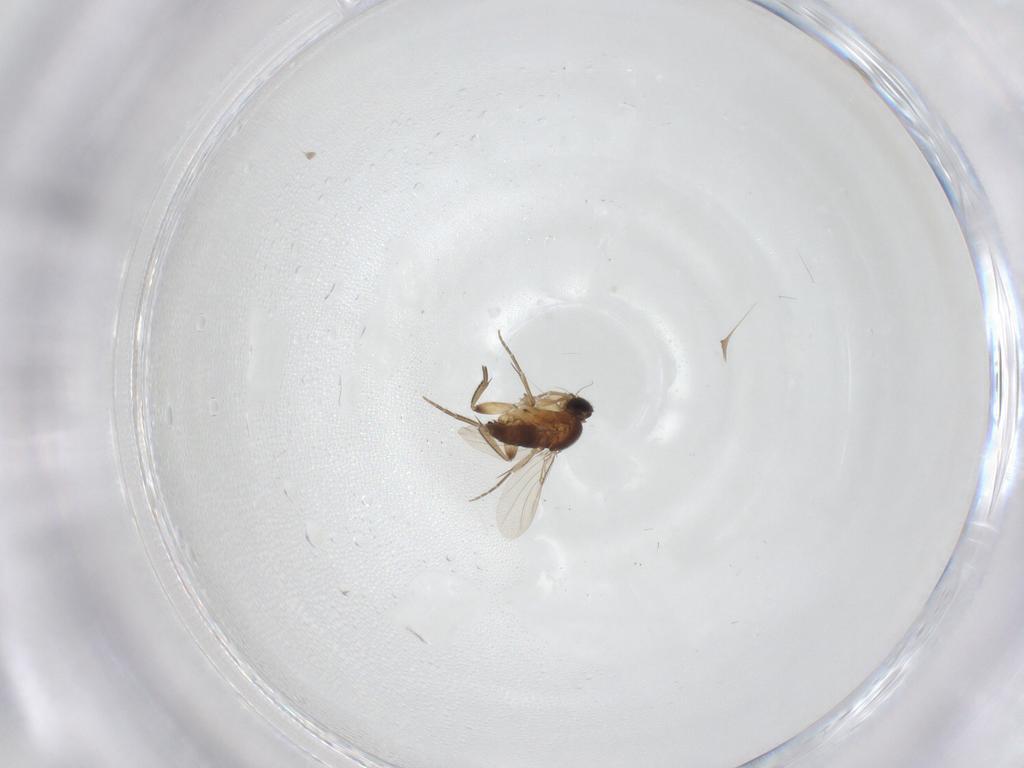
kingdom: Animalia
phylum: Arthropoda
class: Insecta
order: Diptera
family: Phoridae
